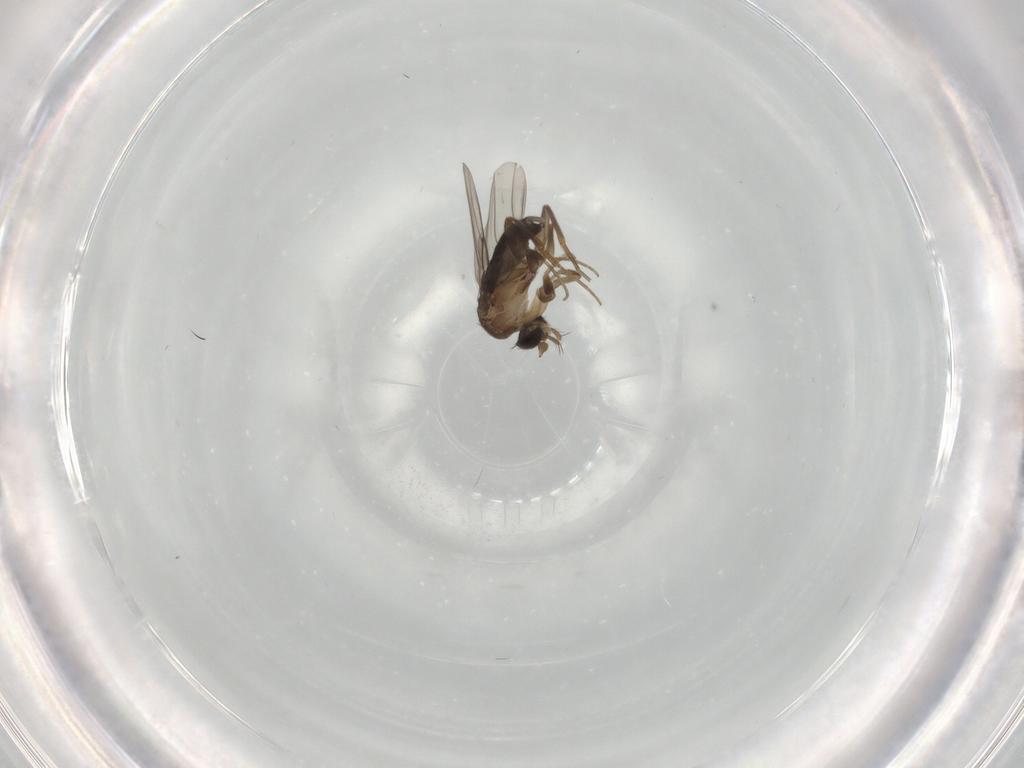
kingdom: Animalia
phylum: Arthropoda
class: Insecta
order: Diptera
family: Phoridae
